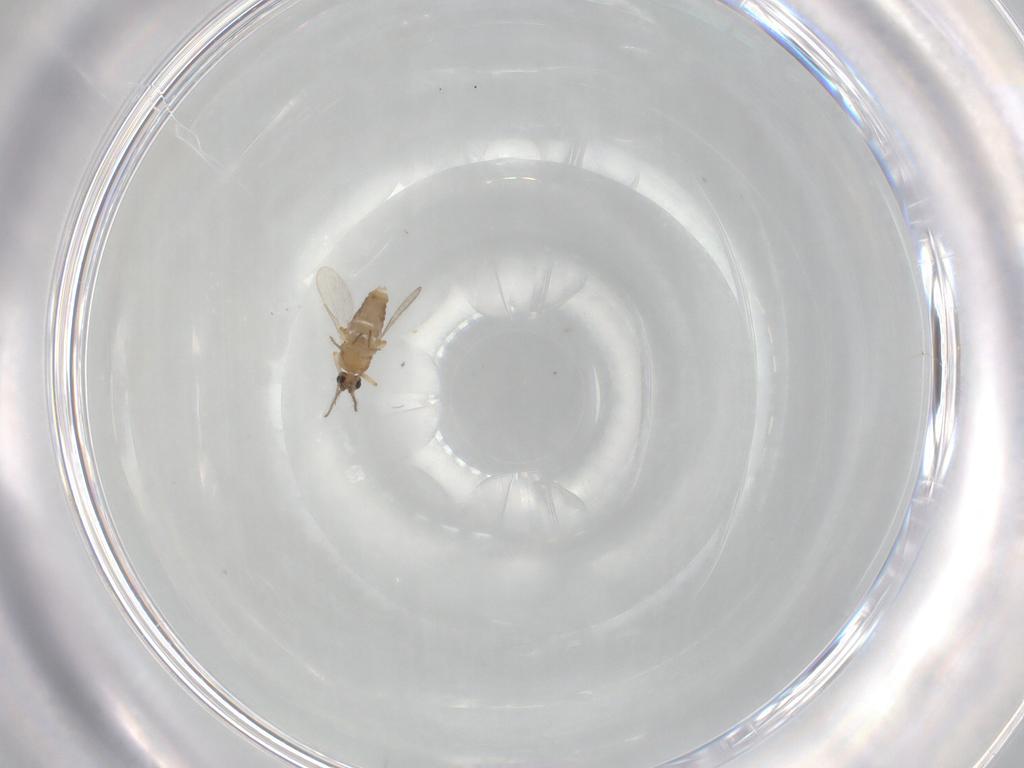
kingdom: Animalia
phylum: Arthropoda
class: Insecta
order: Diptera
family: Ceratopogonidae
